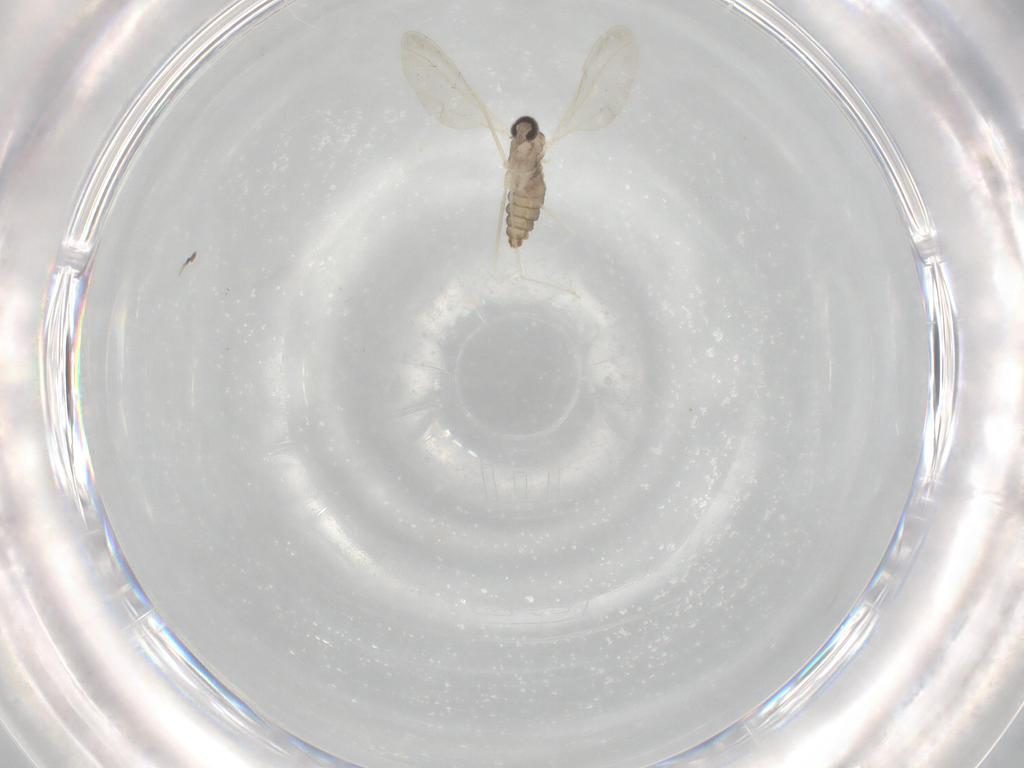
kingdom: Animalia
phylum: Arthropoda
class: Insecta
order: Diptera
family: Cecidomyiidae
